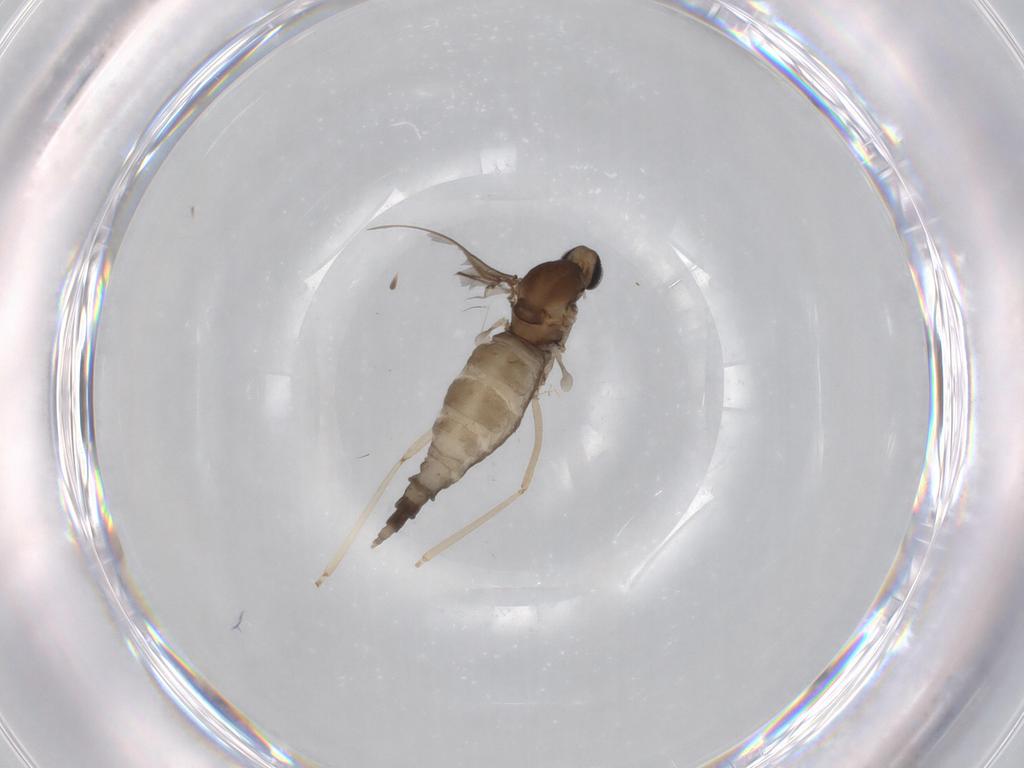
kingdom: Animalia
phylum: Arthropoda
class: Insecta
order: Diptera
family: Cecidomyiidae
